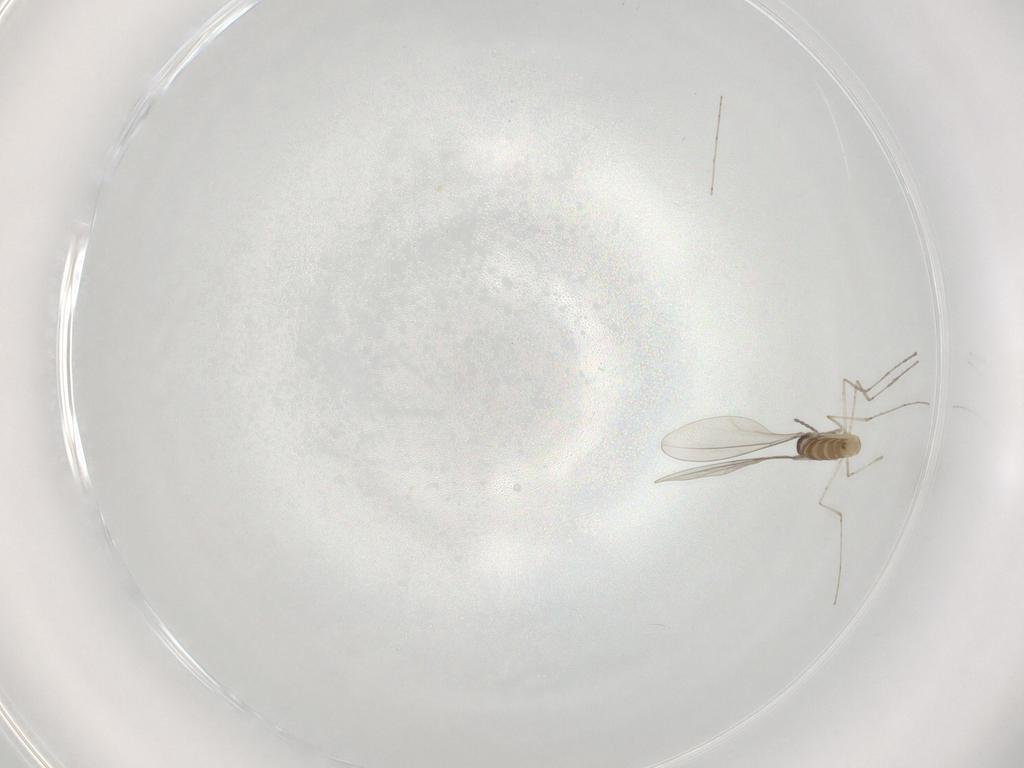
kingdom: Animalia
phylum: Arthropoda
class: Insecta
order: Diptera
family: Cecidomyiidae
